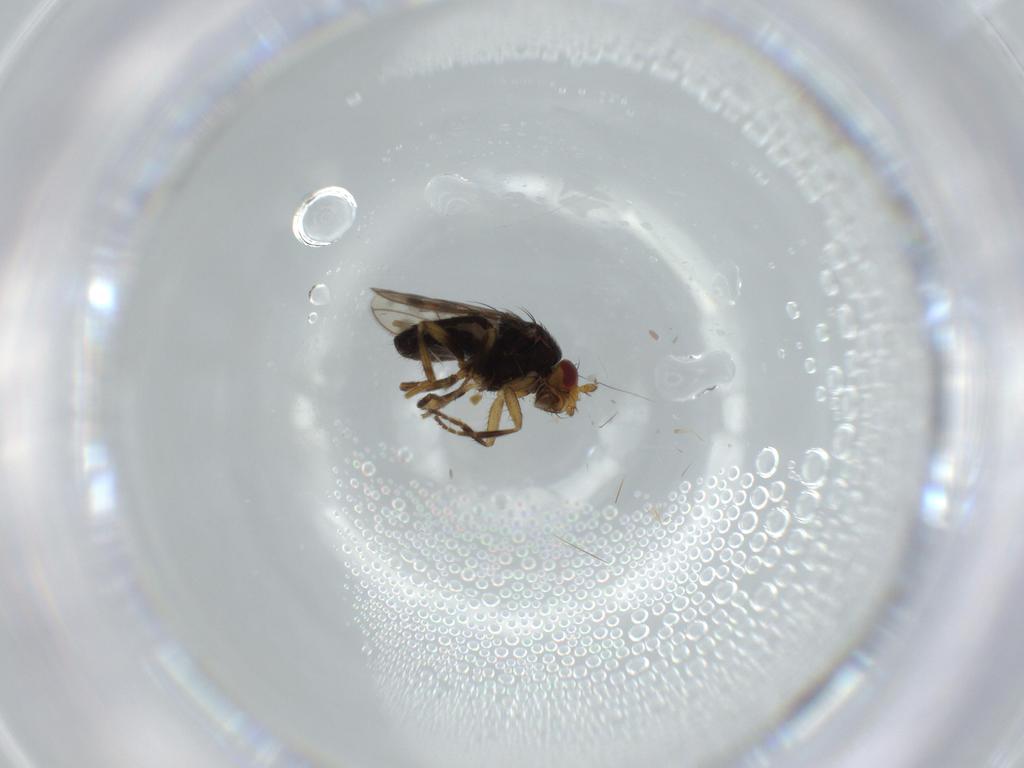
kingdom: Animalia
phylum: Arthropoda
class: Insecta
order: Diptera
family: Sphaeroceridae
